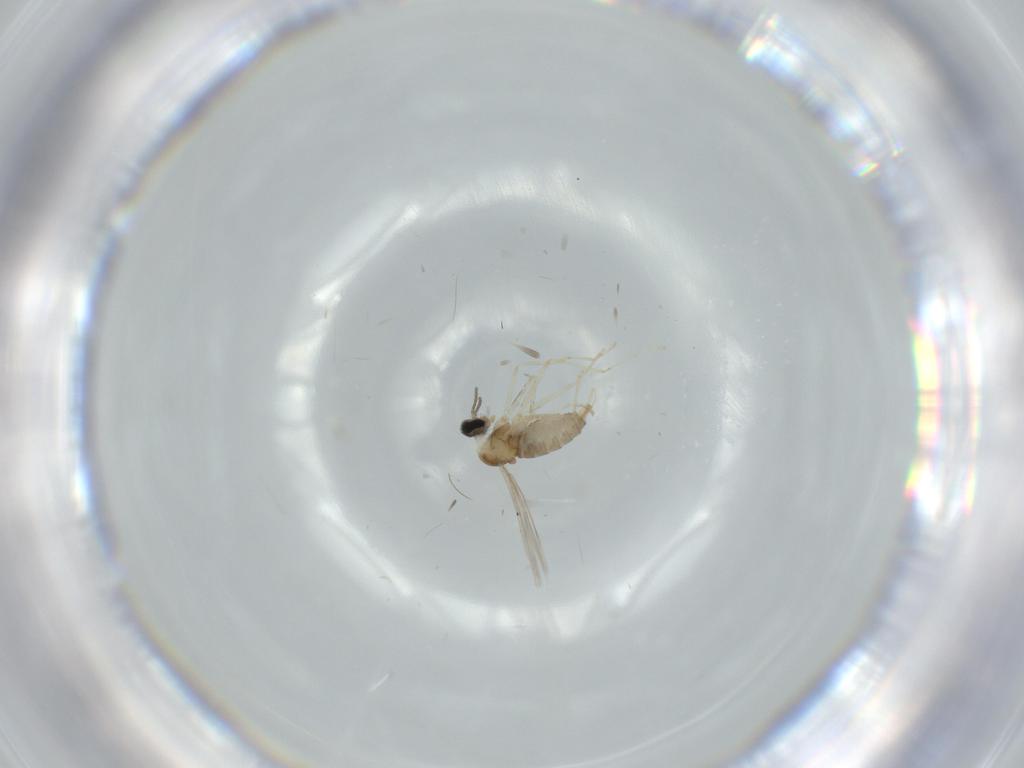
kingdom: Animalia
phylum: Arthropoda
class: Insecta
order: Diptera
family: Cecidomyiidae
